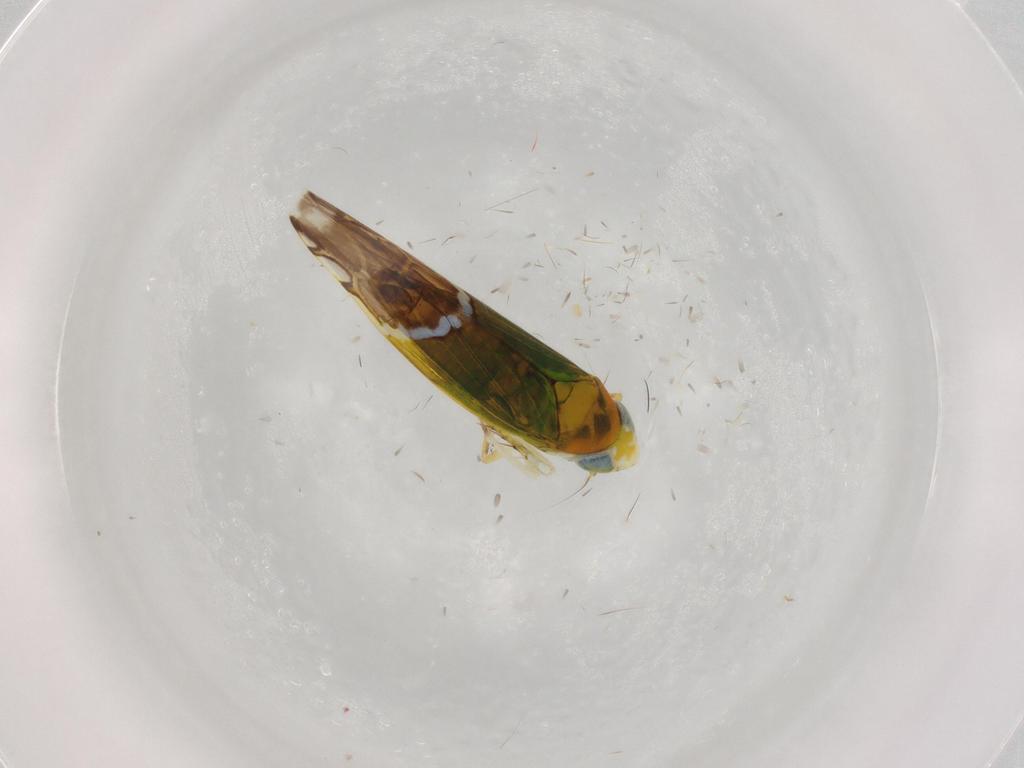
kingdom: Animalia
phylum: Arthropoda
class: Insecta
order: Hemiptera
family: Cicadellidae
